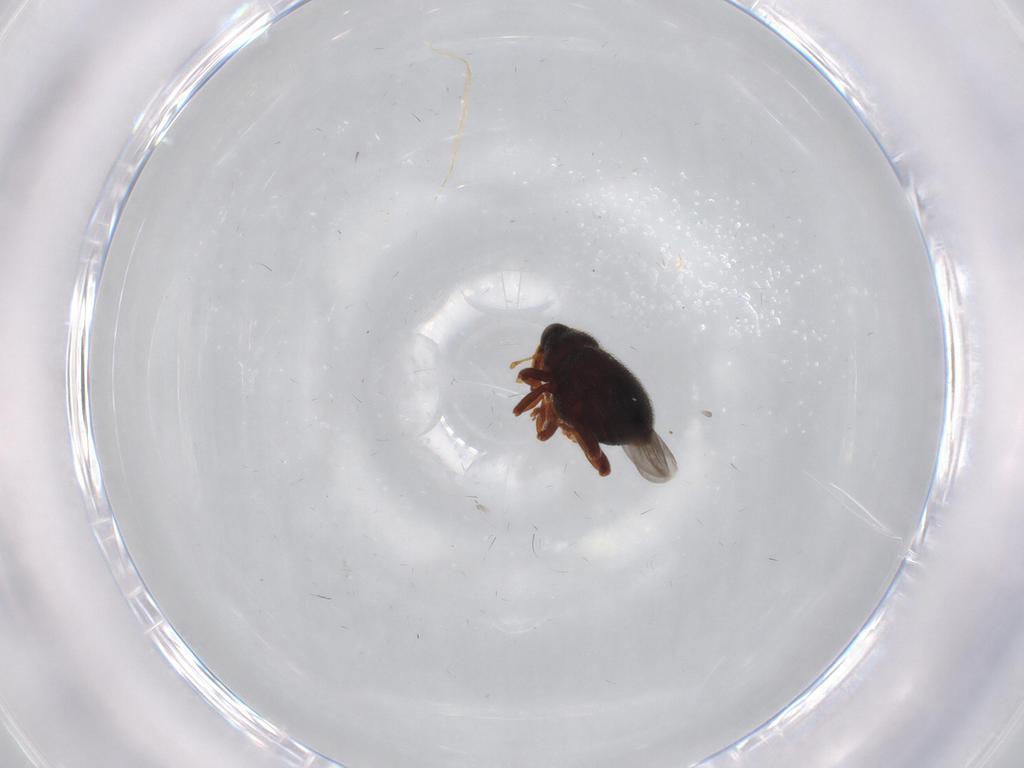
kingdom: Animalia
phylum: Arthropoda
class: Insecta
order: Coleoptera
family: Curculionidae
